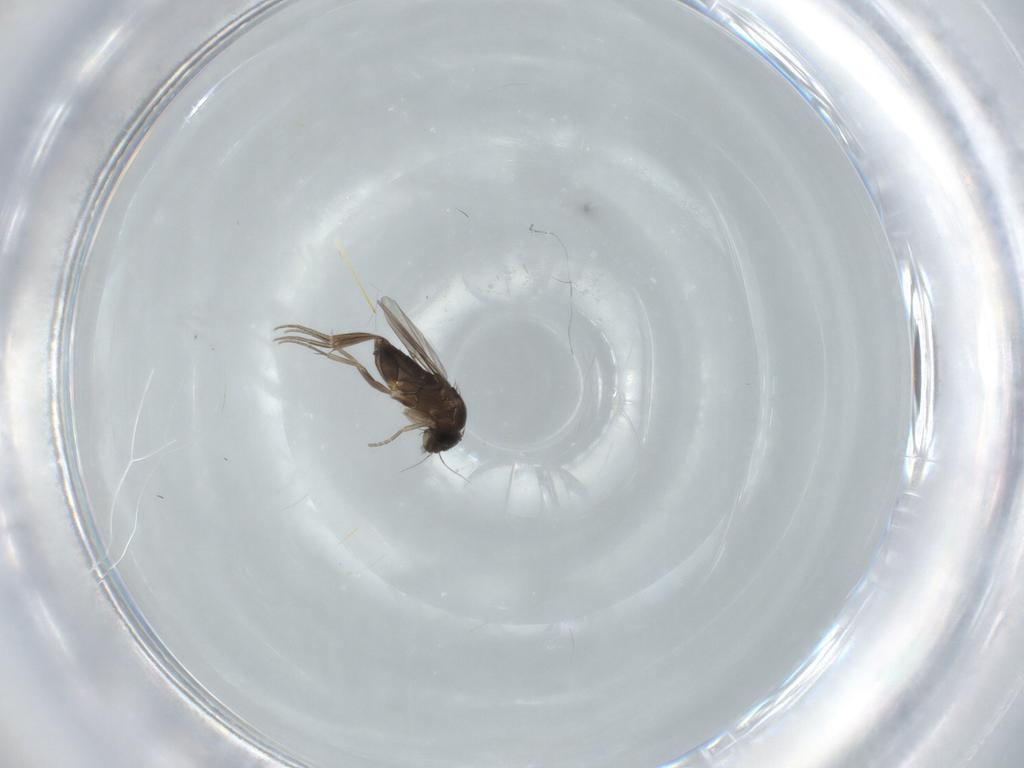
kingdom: Animalia
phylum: Arthropoda
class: Insecta
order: Diptera
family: Phoridae
